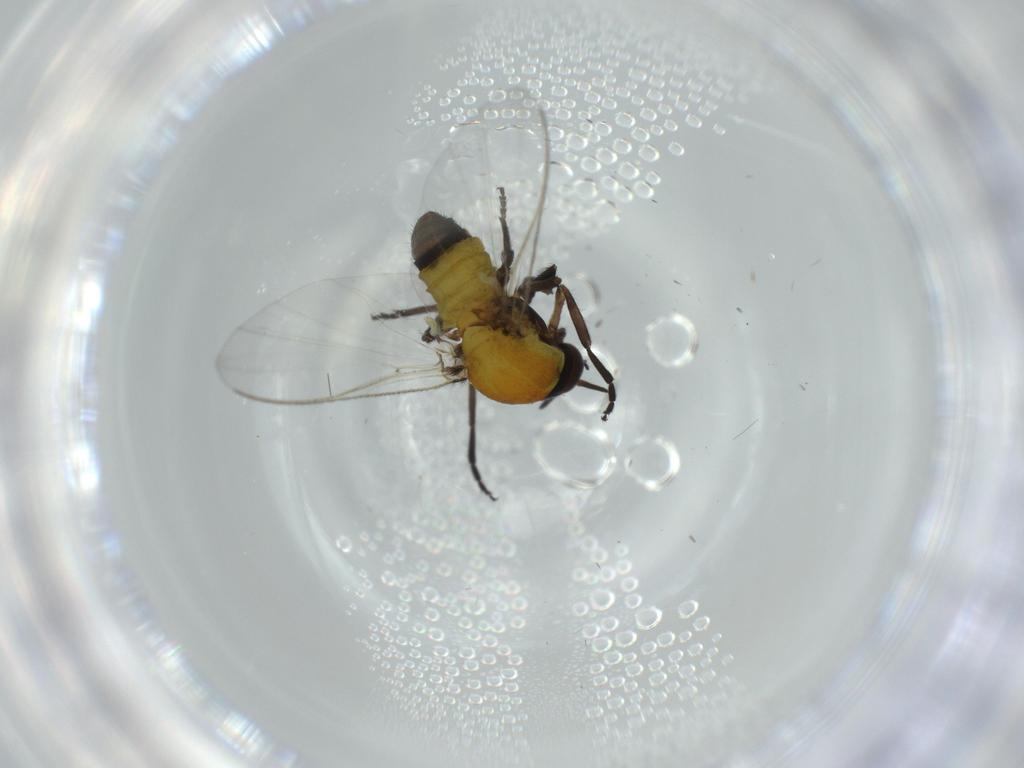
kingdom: Animalia
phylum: Arthropoda
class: Insecta
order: Diptera
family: Simuliidae
